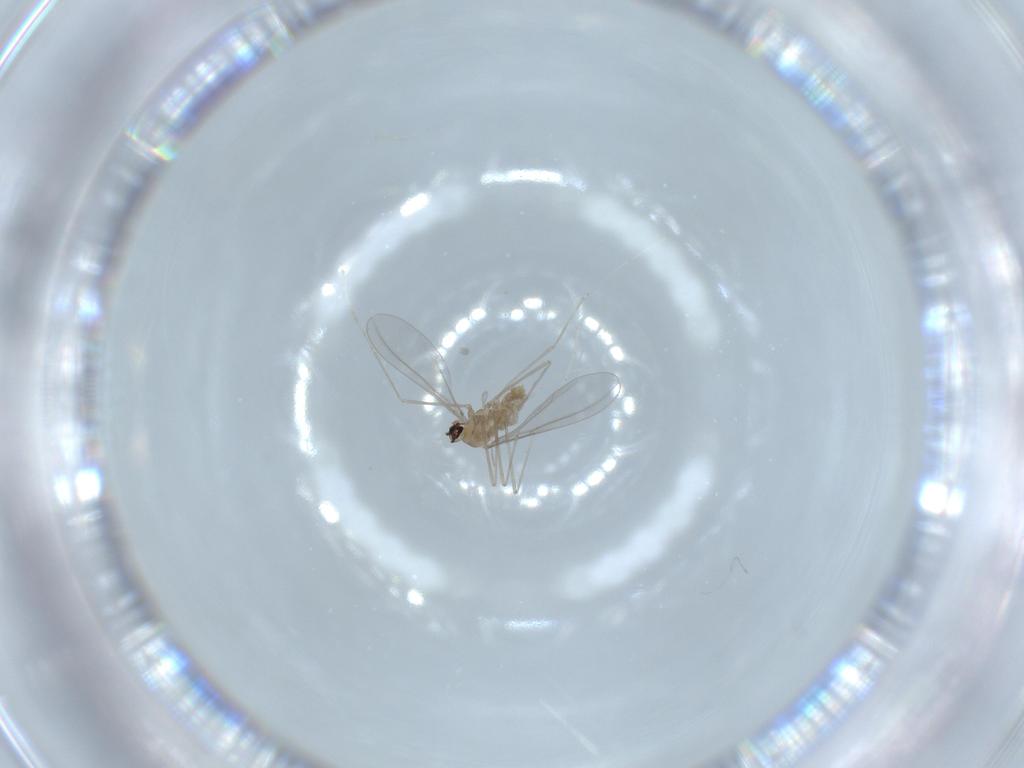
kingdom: Animalia
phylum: Arthropoda
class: Insecta
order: Diptera
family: Cecidomyiidae
